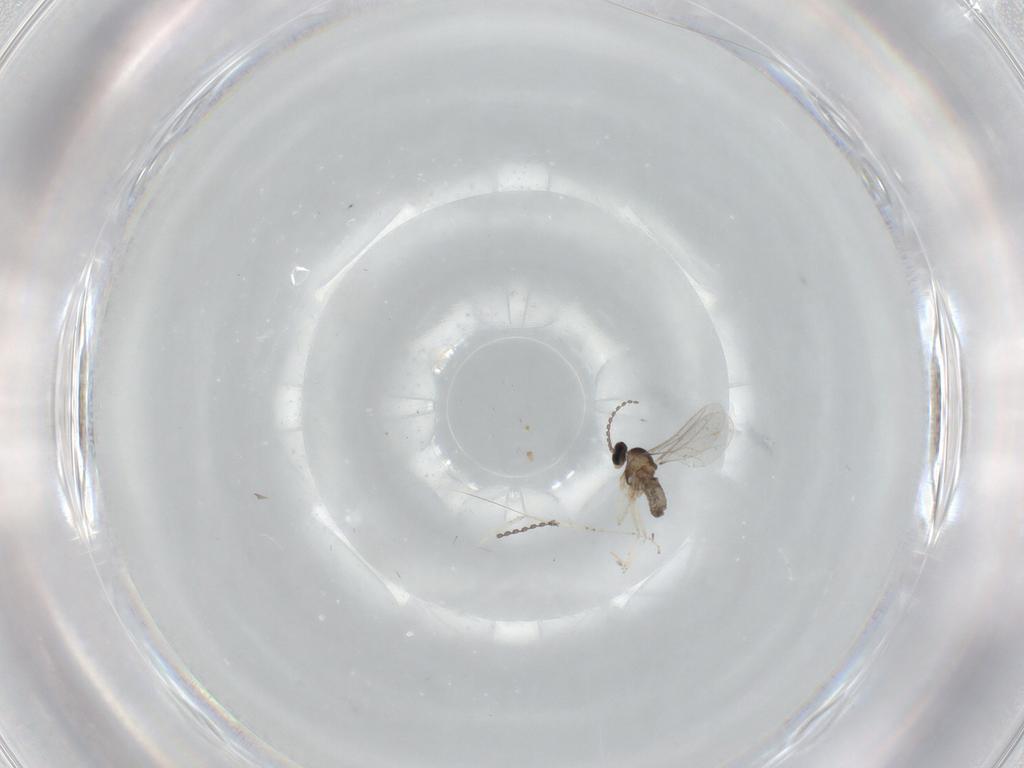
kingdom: Animalia
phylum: Arthropoda
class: Insecta
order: Diptera
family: Cecidomyiidae
